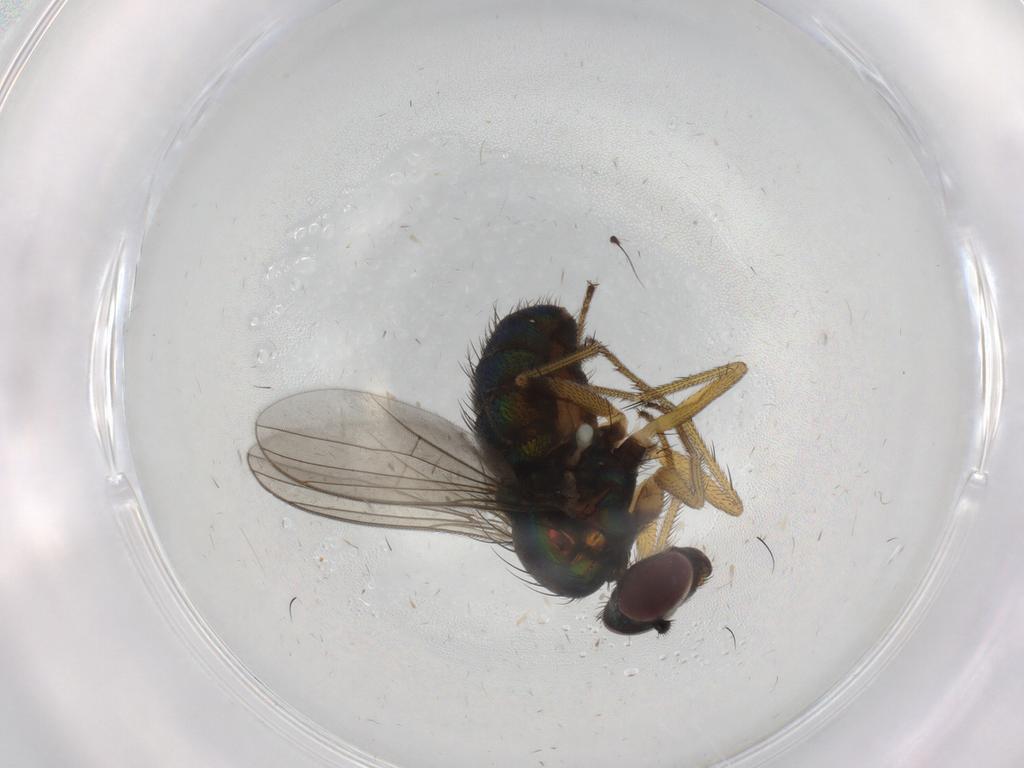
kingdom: Animalia
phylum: Arthropoda
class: Insecta
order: Diptera
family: Dolichopodidae
